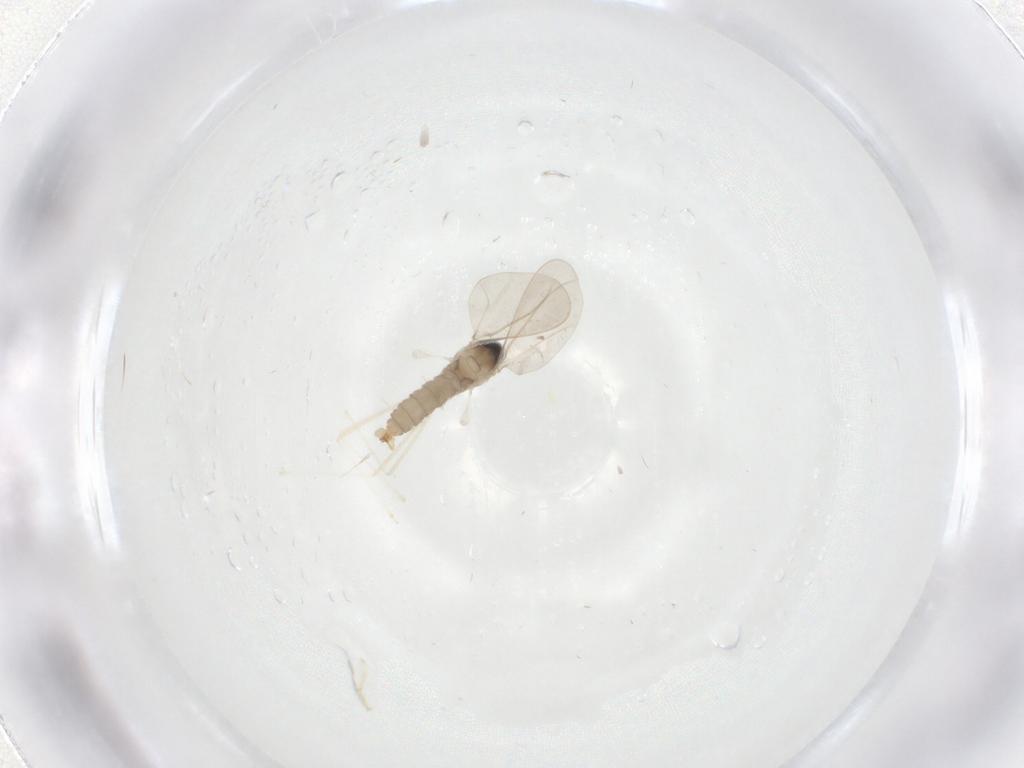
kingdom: Animalia
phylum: Arthropoda
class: Insecta
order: Diptera
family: Cecidomyiidae
